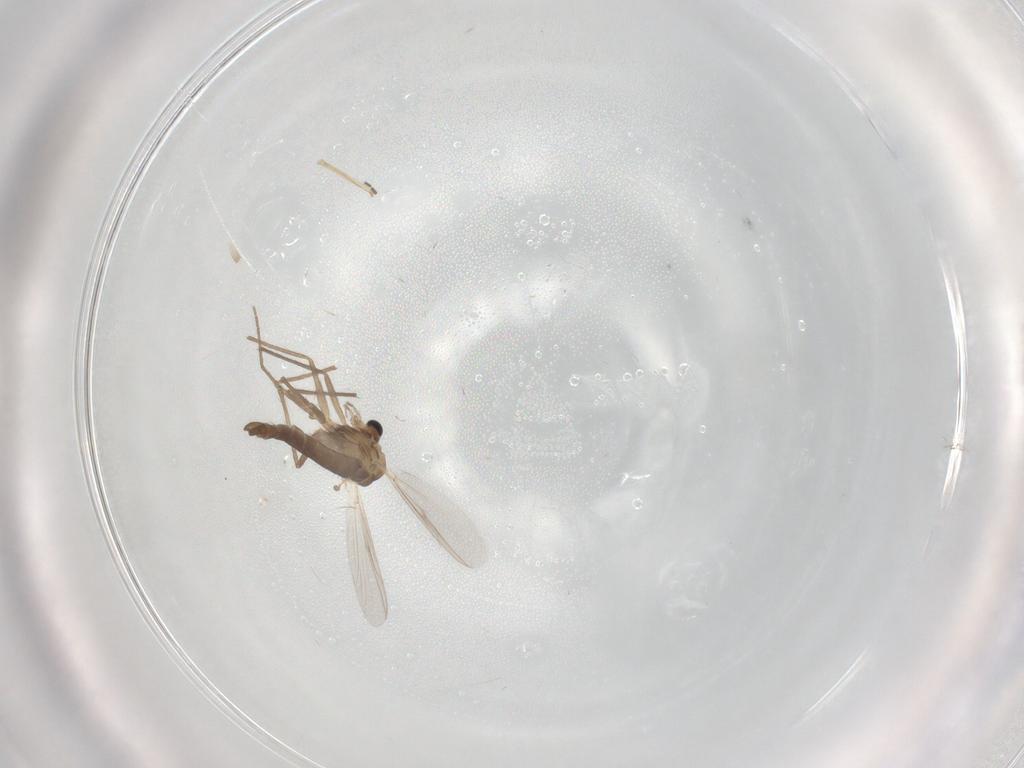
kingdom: Animalia
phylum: Arthropoda
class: Insecta
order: Diptera
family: Chironomidae
